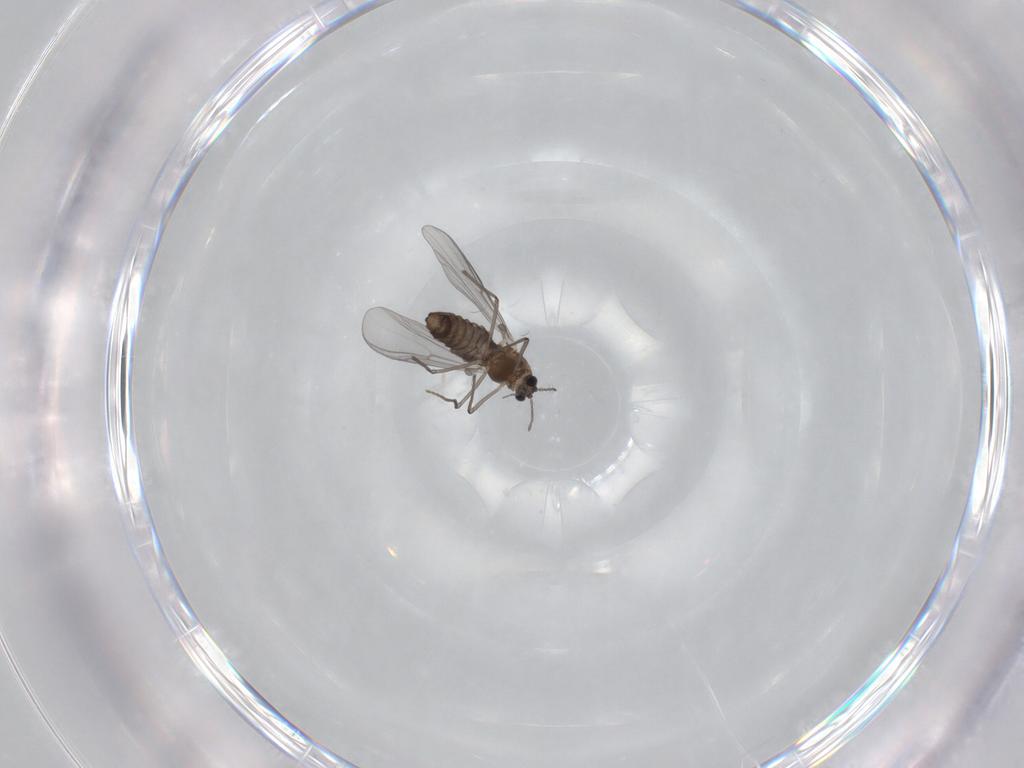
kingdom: Animalia
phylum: Arthropoda
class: Insecta
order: Diptera
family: Chironomidae
